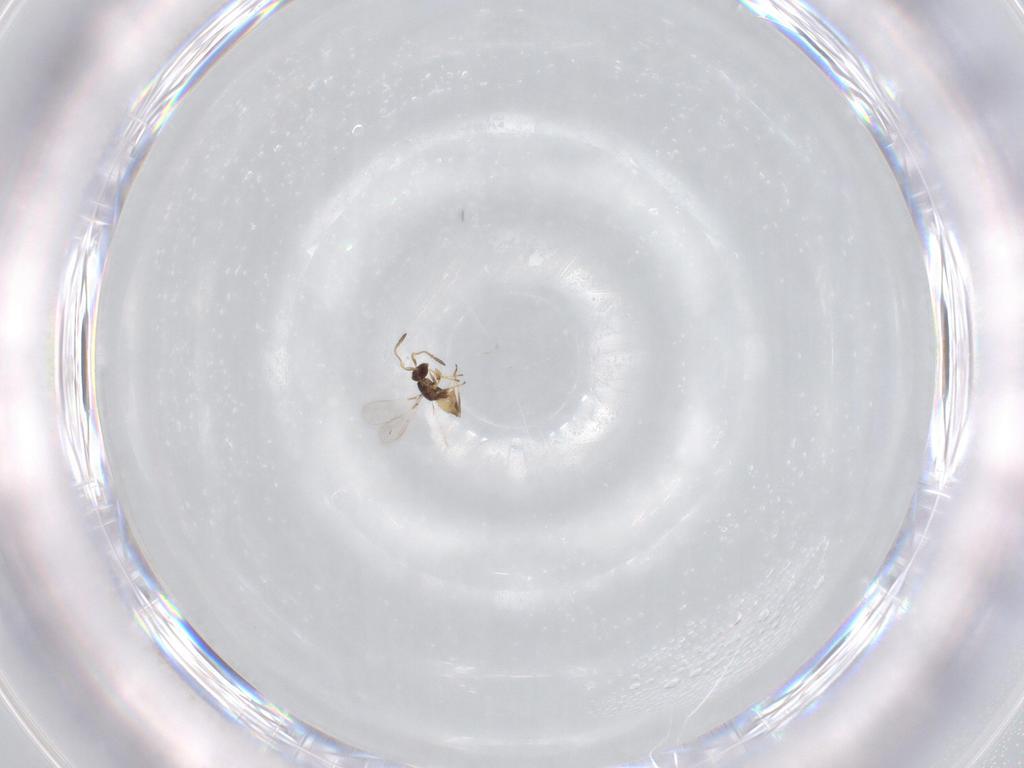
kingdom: Animalia
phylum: Arthropoda
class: Insecta
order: Hymenoptera
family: Mymaridae
